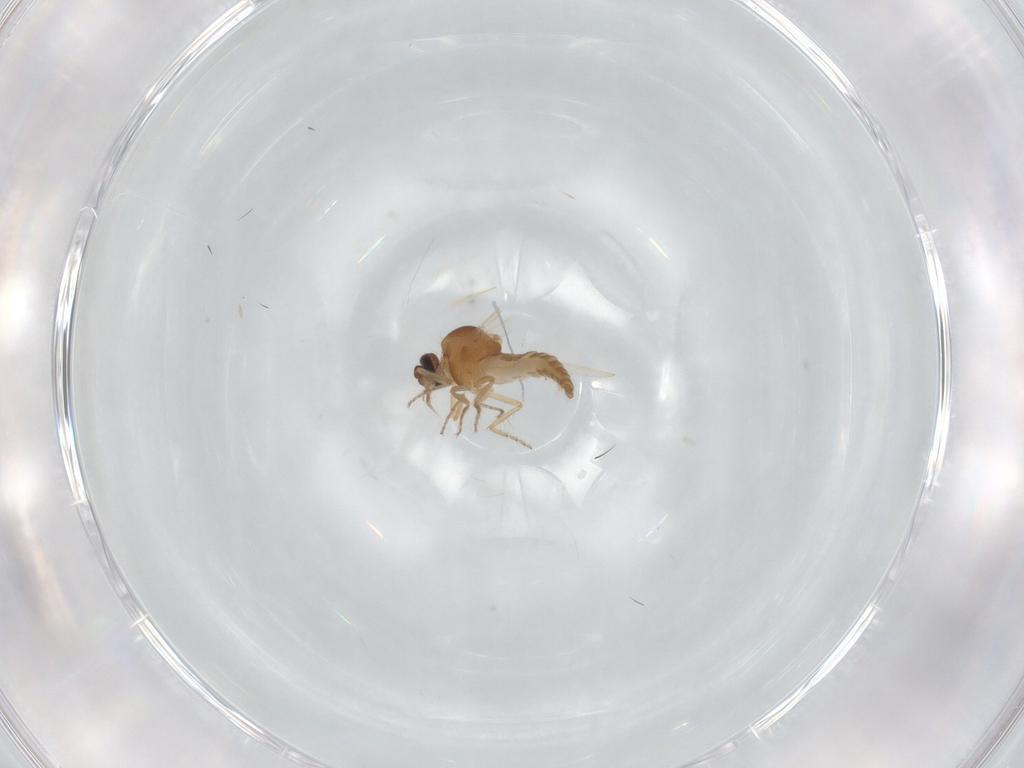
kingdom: Animalia
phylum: Arthropoda
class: Insecta
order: Diptera
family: Ceratopogonidae
